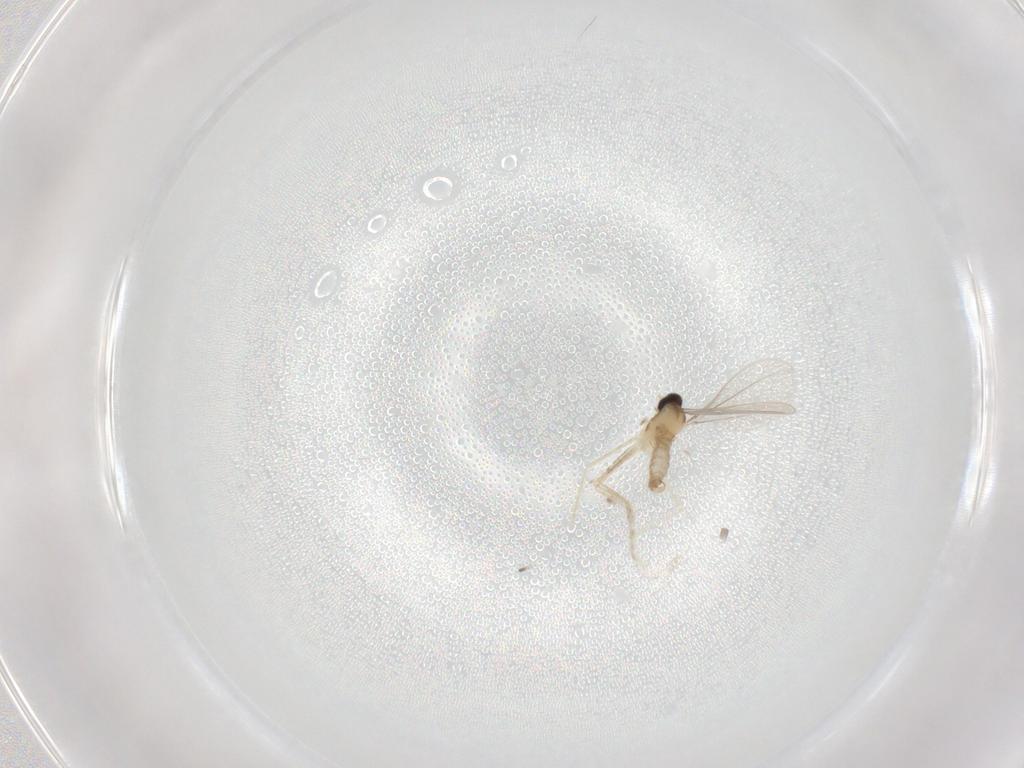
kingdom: Animalia
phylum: Arthropoda
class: Insecta
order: Diptera
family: Cecidomyiidae
